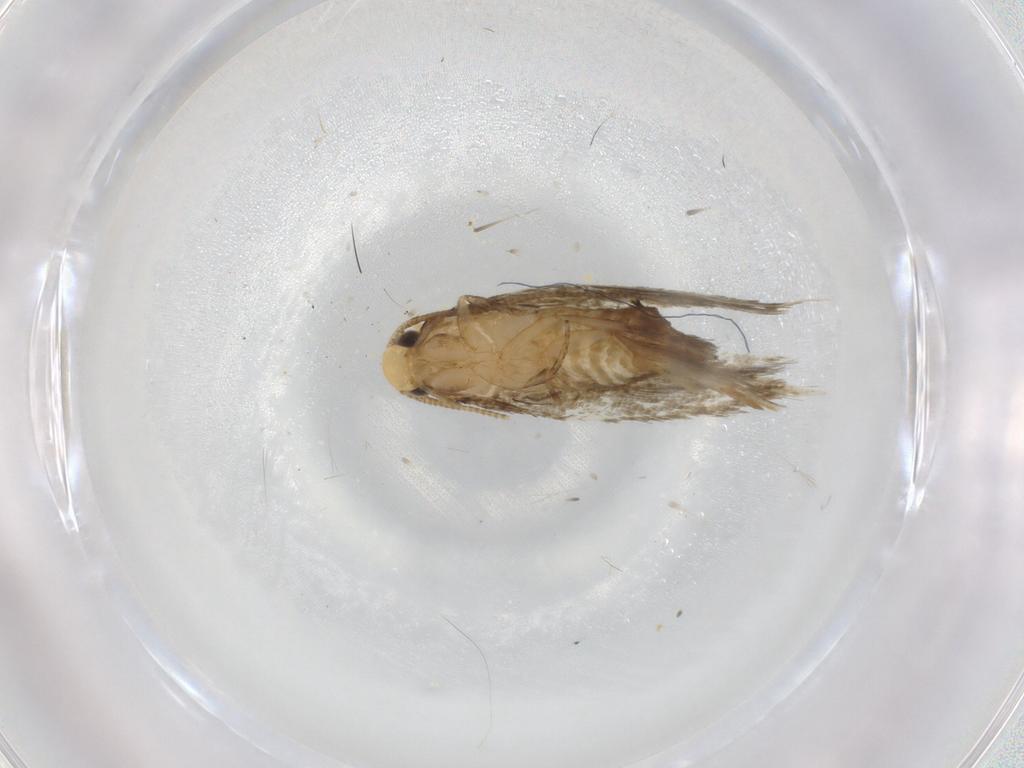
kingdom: Animalia
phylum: Arthropoda
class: Insecta
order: Lepidoptera
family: Tineidae
